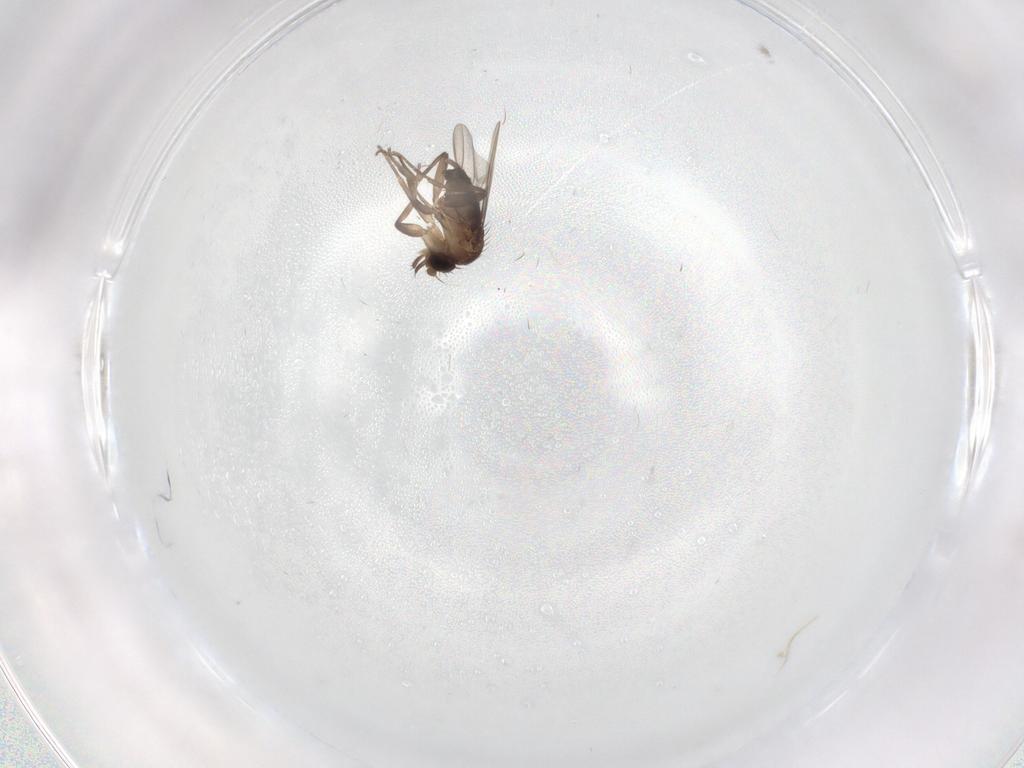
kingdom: Animalia
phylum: Arthropoda
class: Insecta
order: Diptera
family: Phoridae
